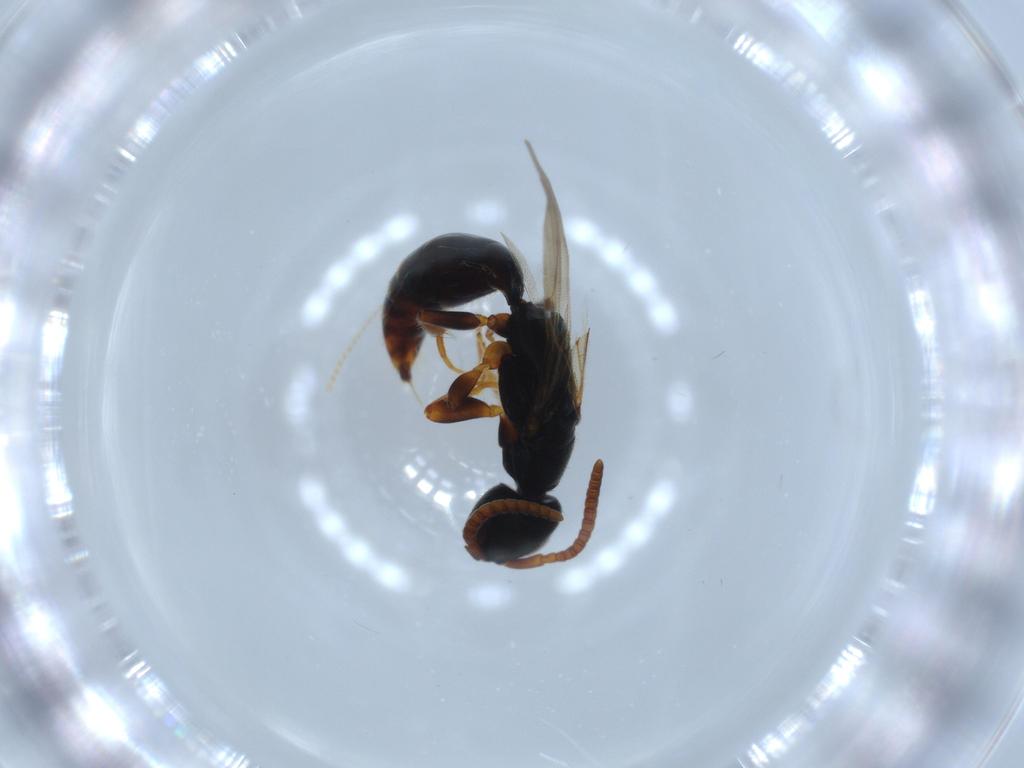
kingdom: Animalia
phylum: Arthropoda
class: Insecta
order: Hymenoptera
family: Bethylidae
